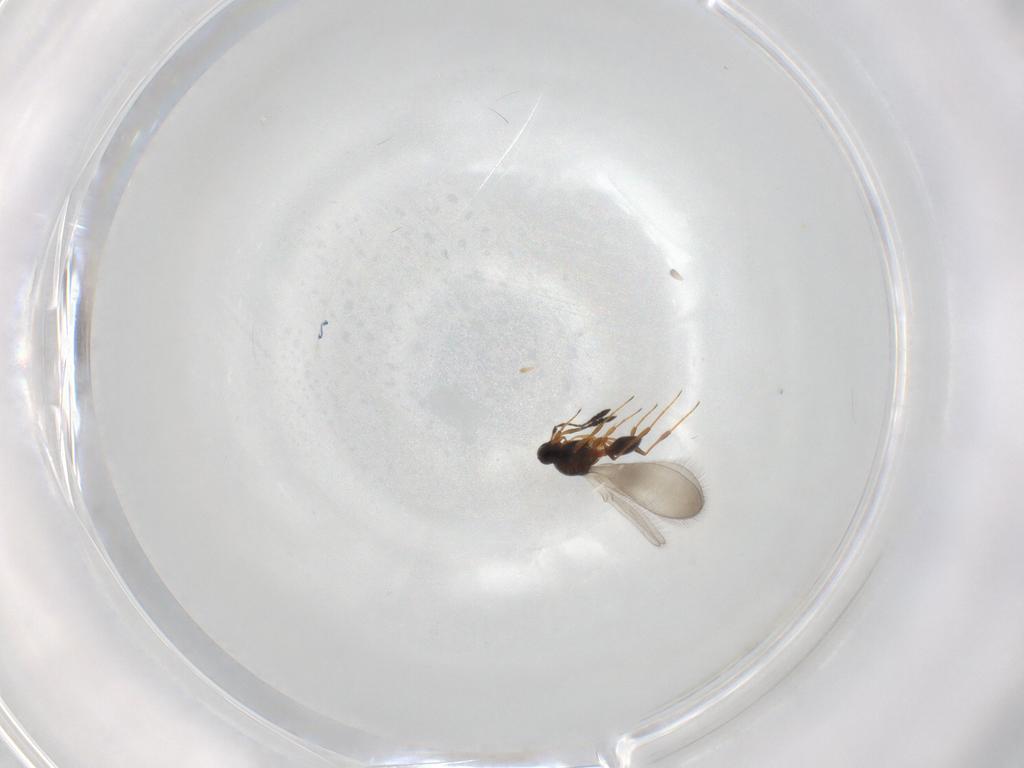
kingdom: Animalia
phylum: Arthropoda
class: Insecta
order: Hymenoptera
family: Platygastridae
